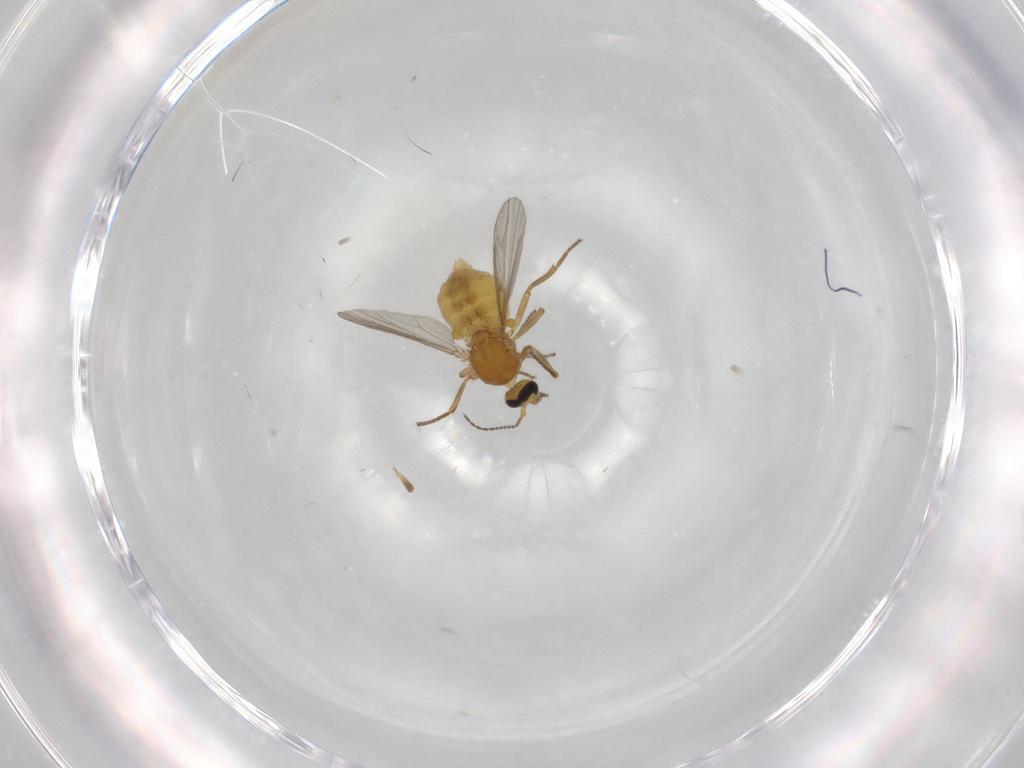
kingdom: Animalia
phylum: Arthropoda
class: Insecta
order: Diptera
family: Ceratopogonidae
